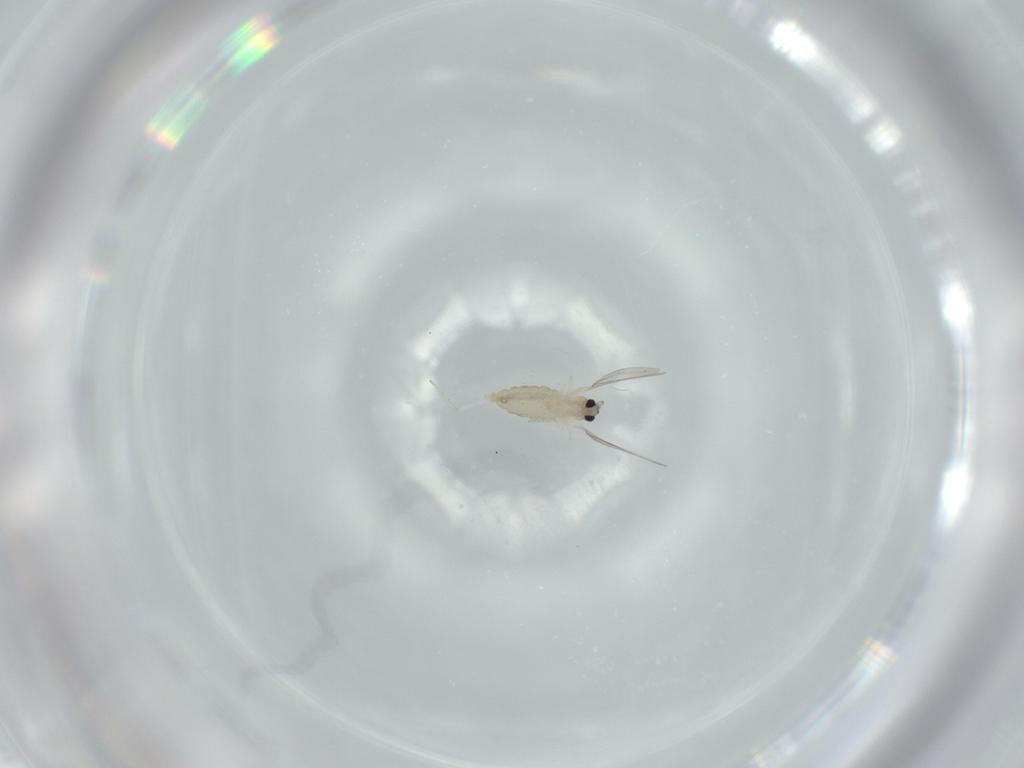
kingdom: Animalia
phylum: Arthropoda
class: Insecta
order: Diptera
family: Cecidomyiidae
